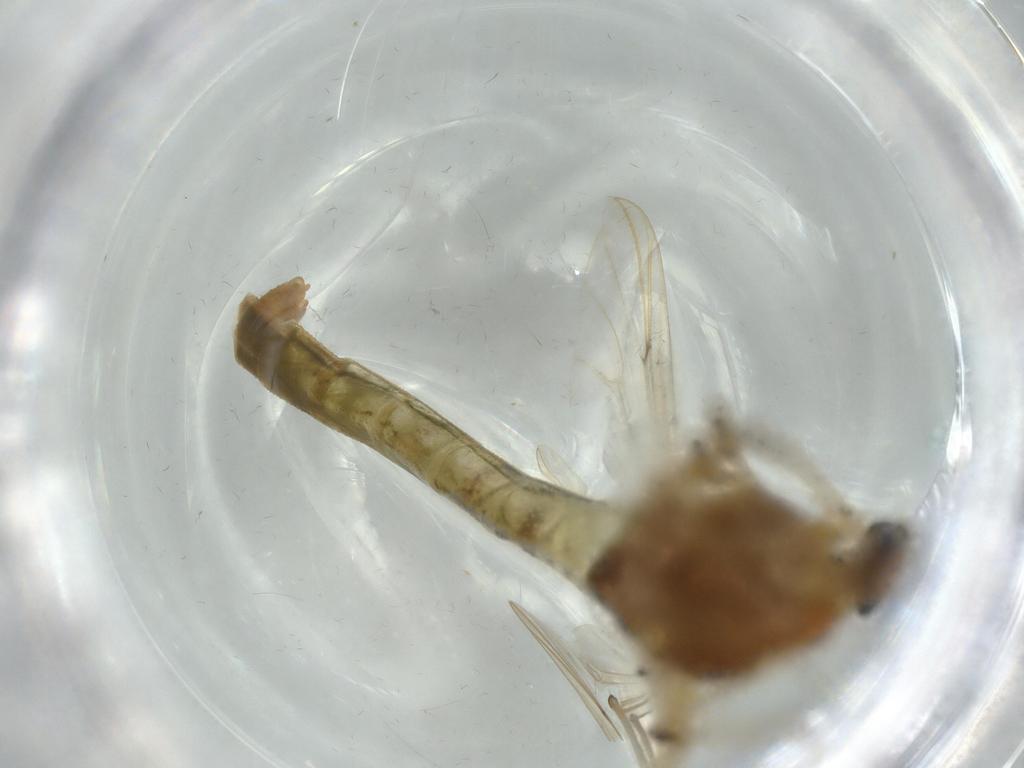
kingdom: Animalia
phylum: Arthropoda
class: Insecta
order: Diptera
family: Chironomidae
